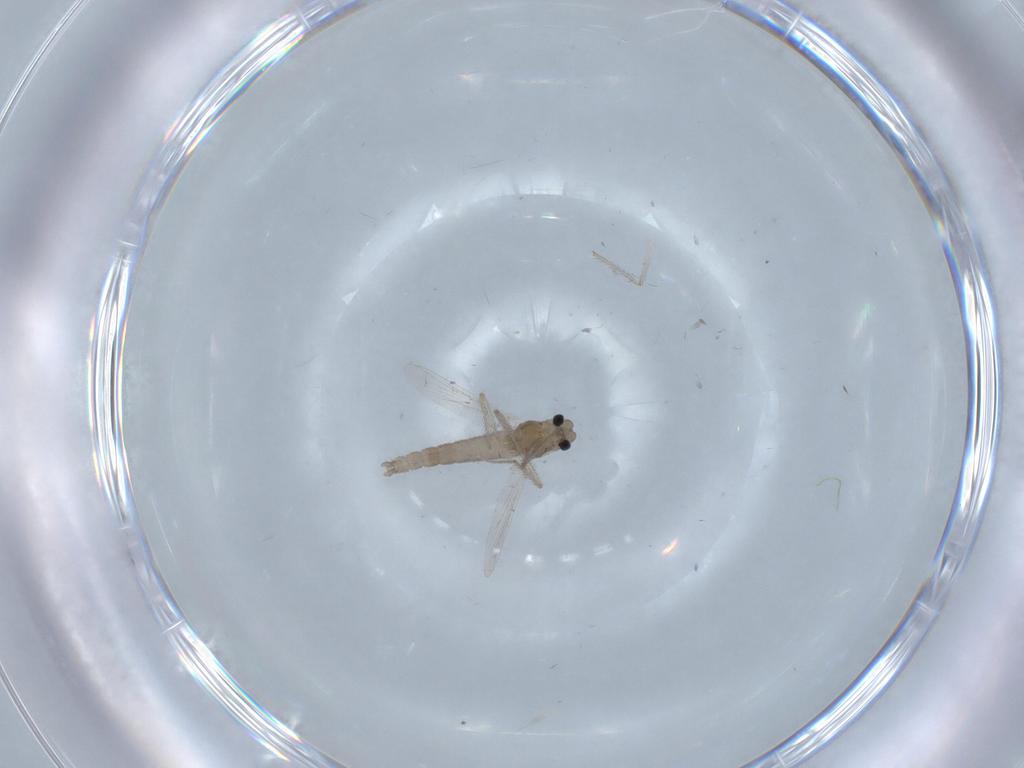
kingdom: Animalia
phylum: Arthropoda
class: Insecta
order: Diptera
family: Chironomidae
